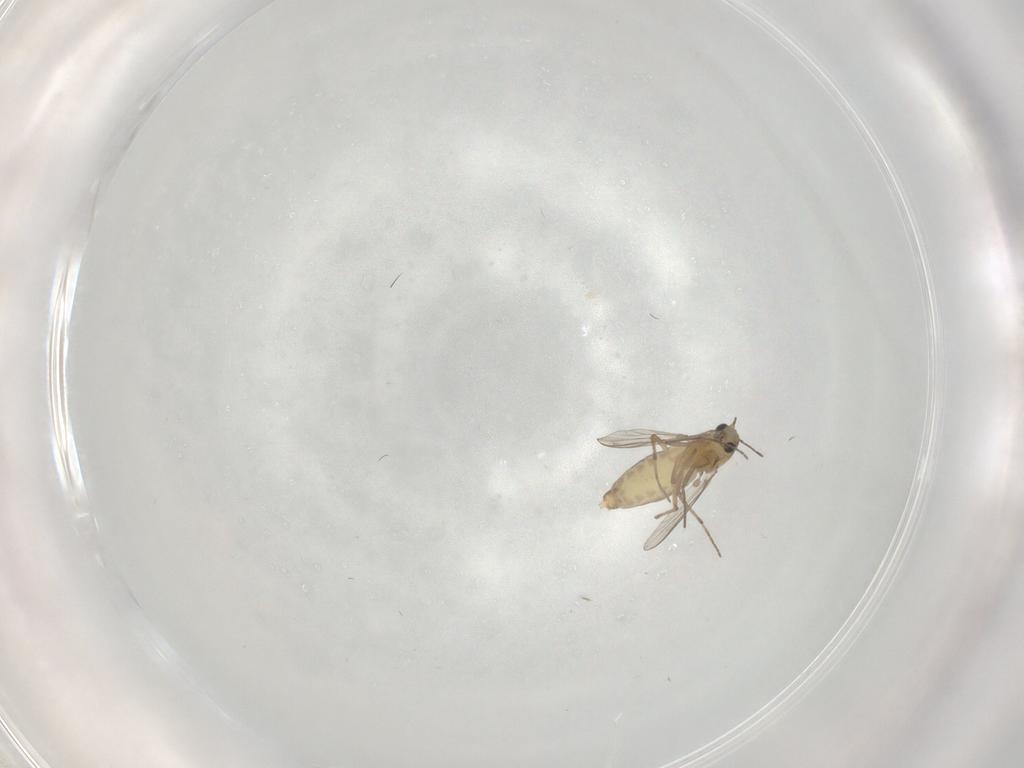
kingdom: Animalia
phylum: Arthropoda
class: Insecta
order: Diptera
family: Chironomidae
